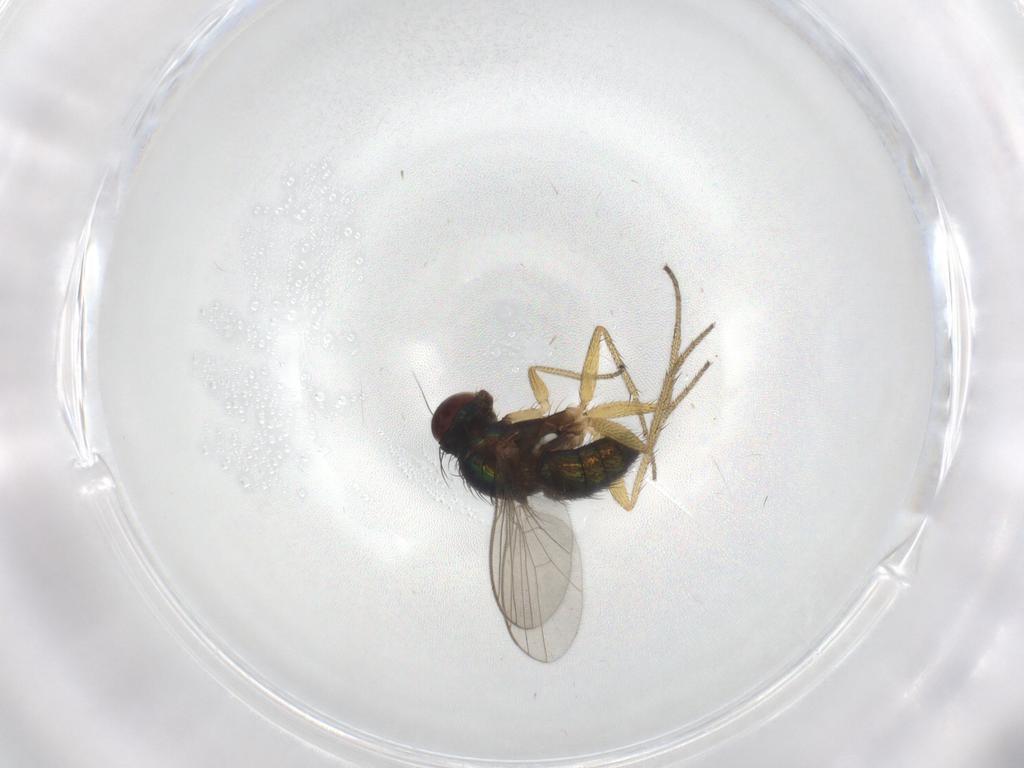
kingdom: Animalia
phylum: Arthropoda
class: Insecta
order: Diptera
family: Dolichopodidae
